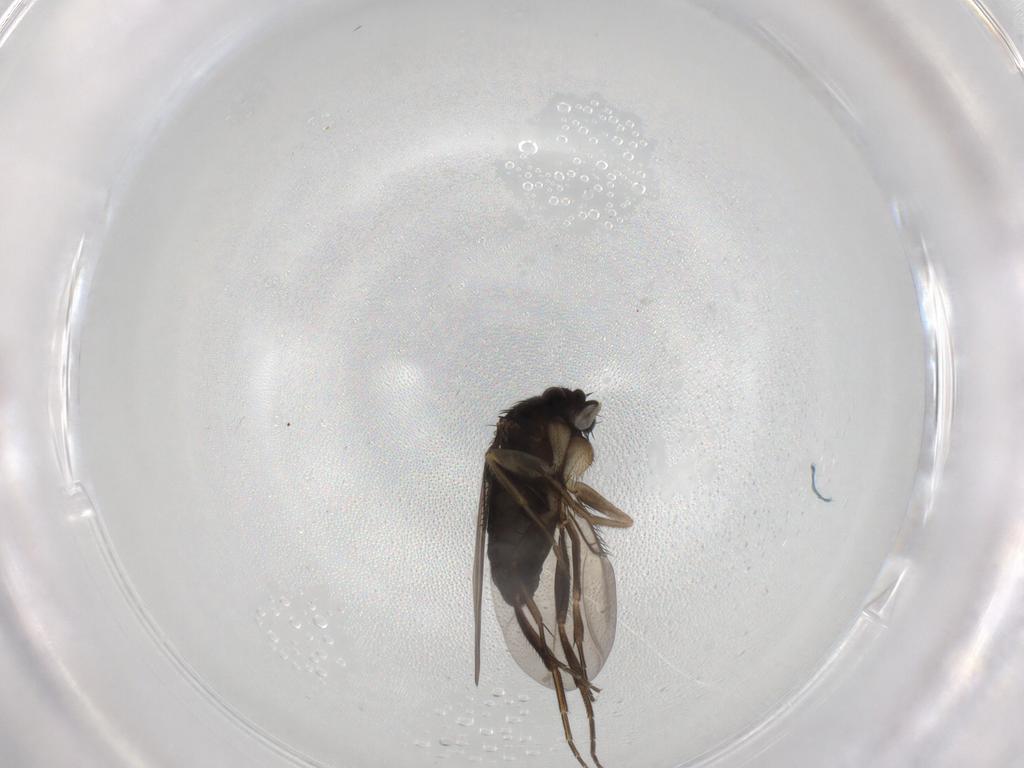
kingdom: Animalia
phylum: Arthropoda
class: Insecta
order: Diptera
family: Phoridae
